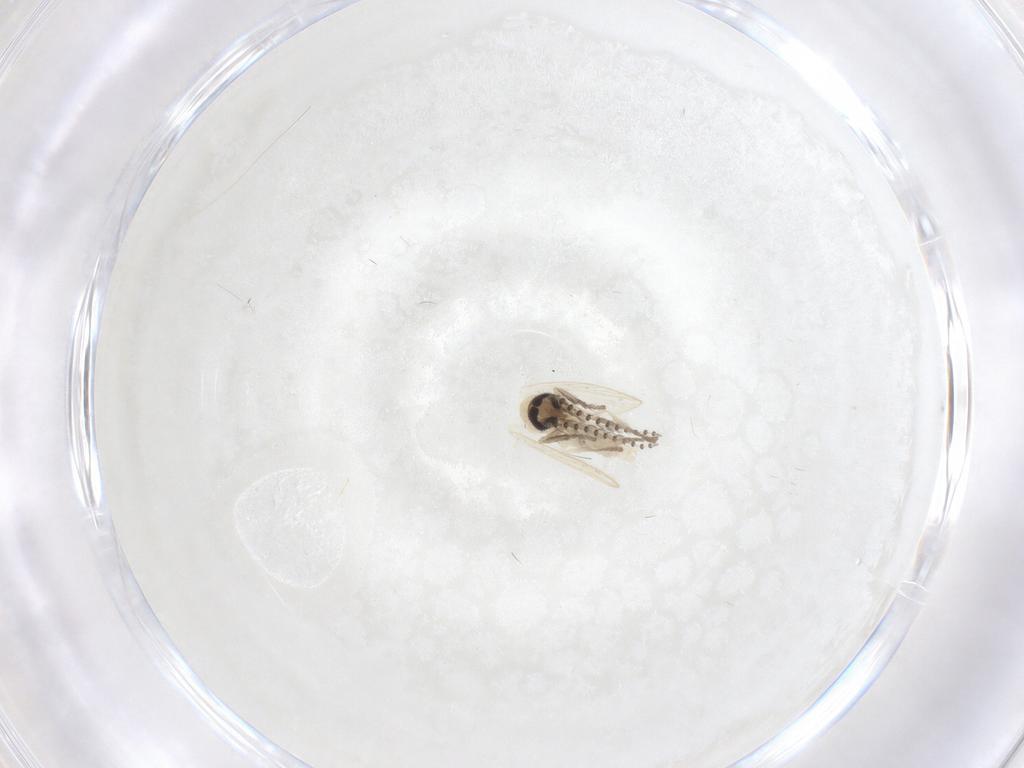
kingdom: Animalia
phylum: Arthropoda
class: Insecta
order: Diptera
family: Psychodidae
